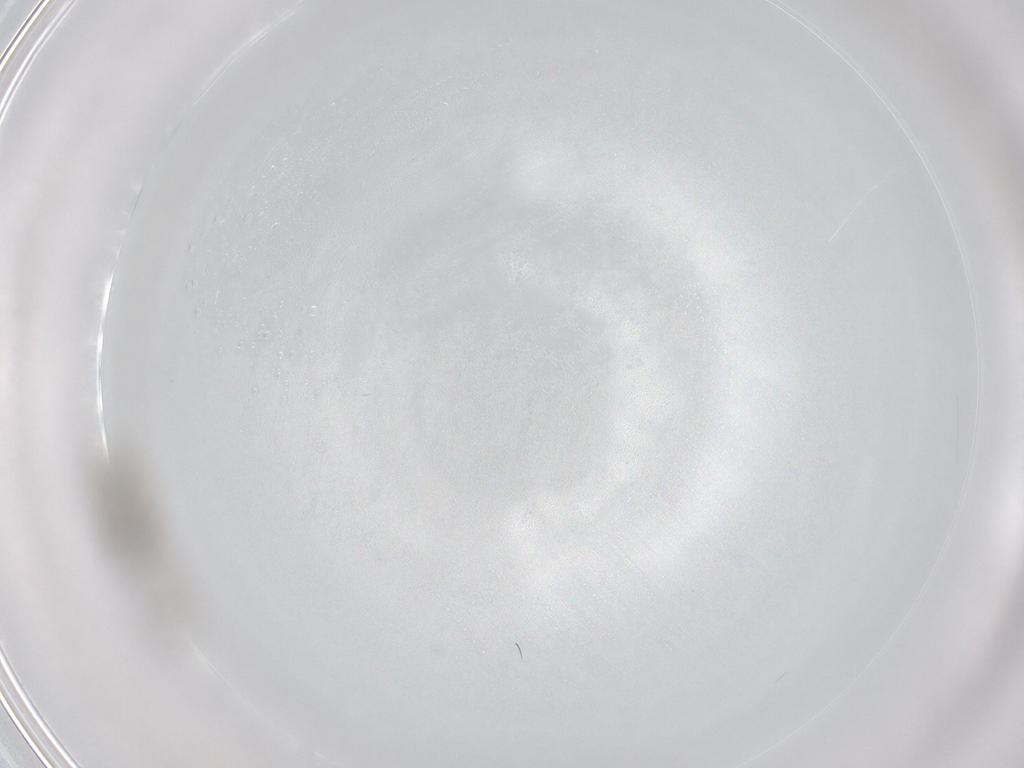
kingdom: Animalia
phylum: Arthropoda
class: Insecta
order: Diptera
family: Cecidomyiidae
